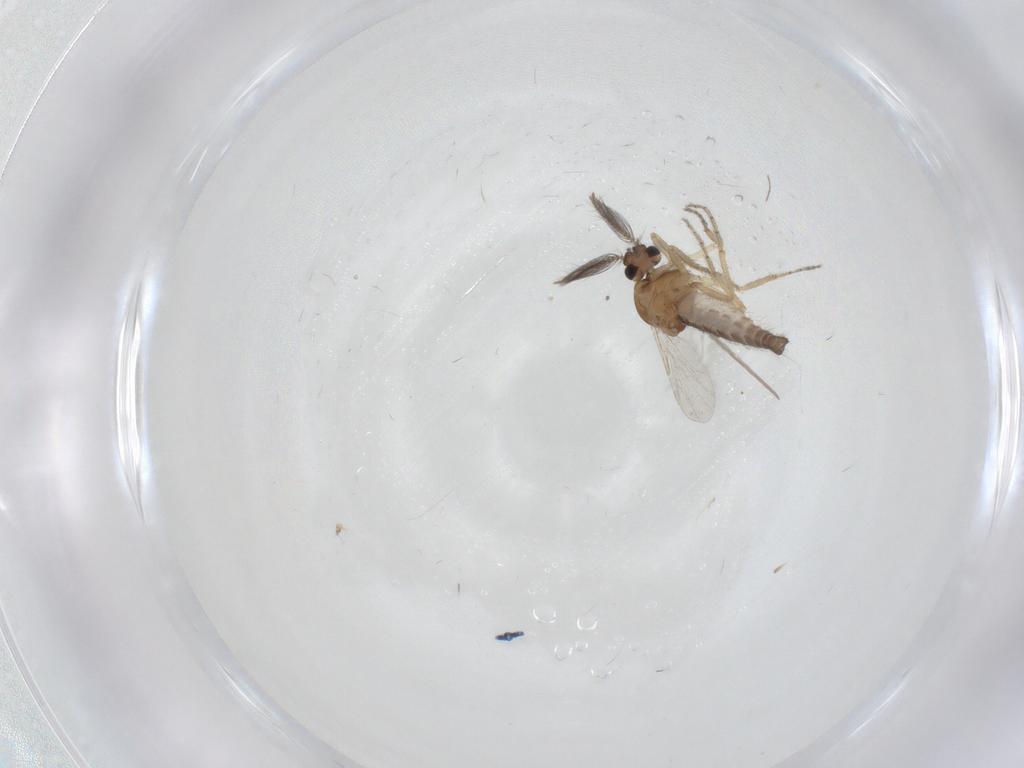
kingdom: Animalia
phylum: Arthropoda
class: Insecta
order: Diptera
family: Ceratopogonidae
